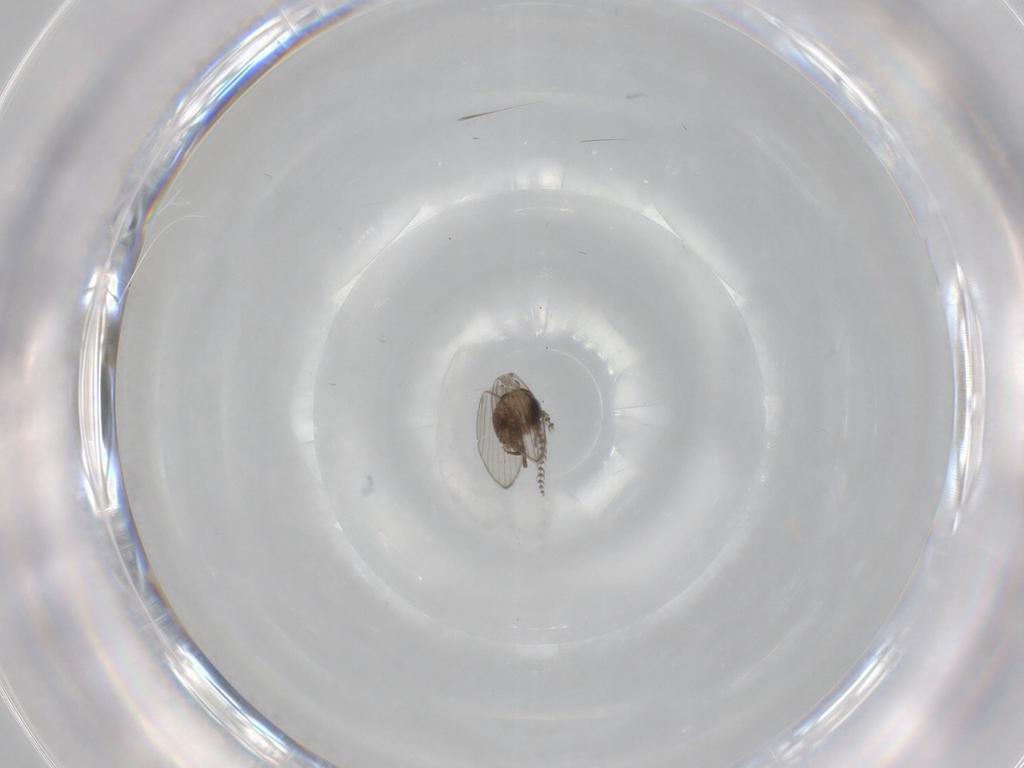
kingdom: Animalia
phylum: Arthropoda
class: Insecta
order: Diptera
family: Psychodidae
